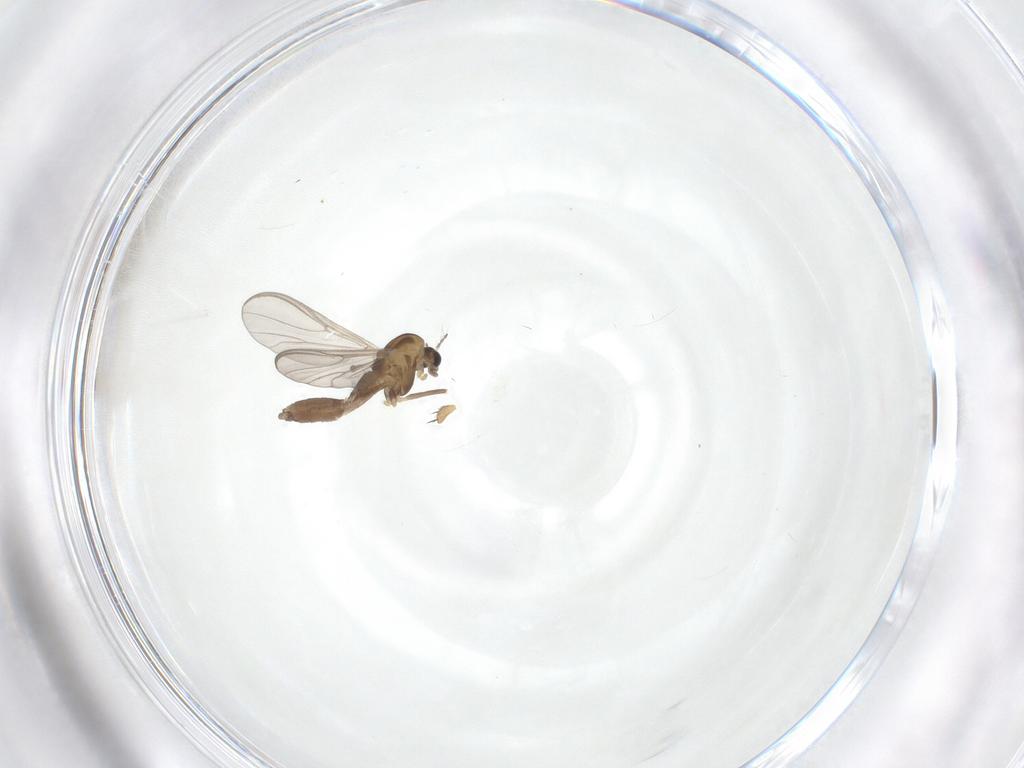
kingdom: Animalia
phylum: Arthropoda
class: Insecta
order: Diptera
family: Chironomidae
